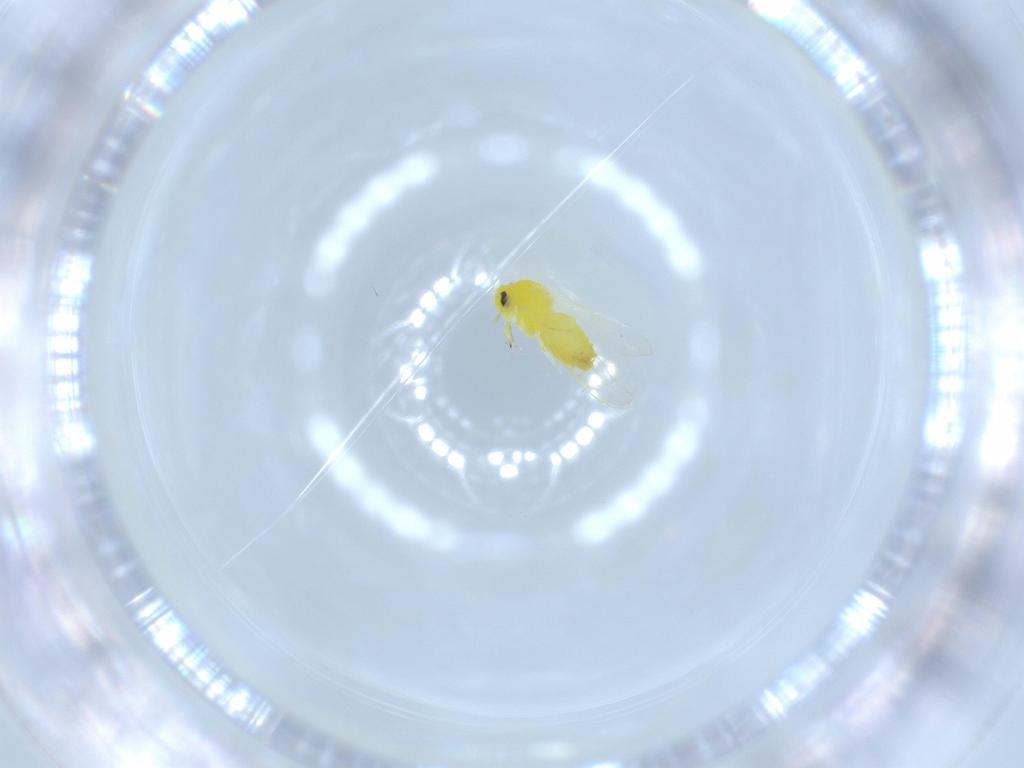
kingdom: Animalia
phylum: Arthropoda
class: Insecta
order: Hemiptera
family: Aleyrodidae
